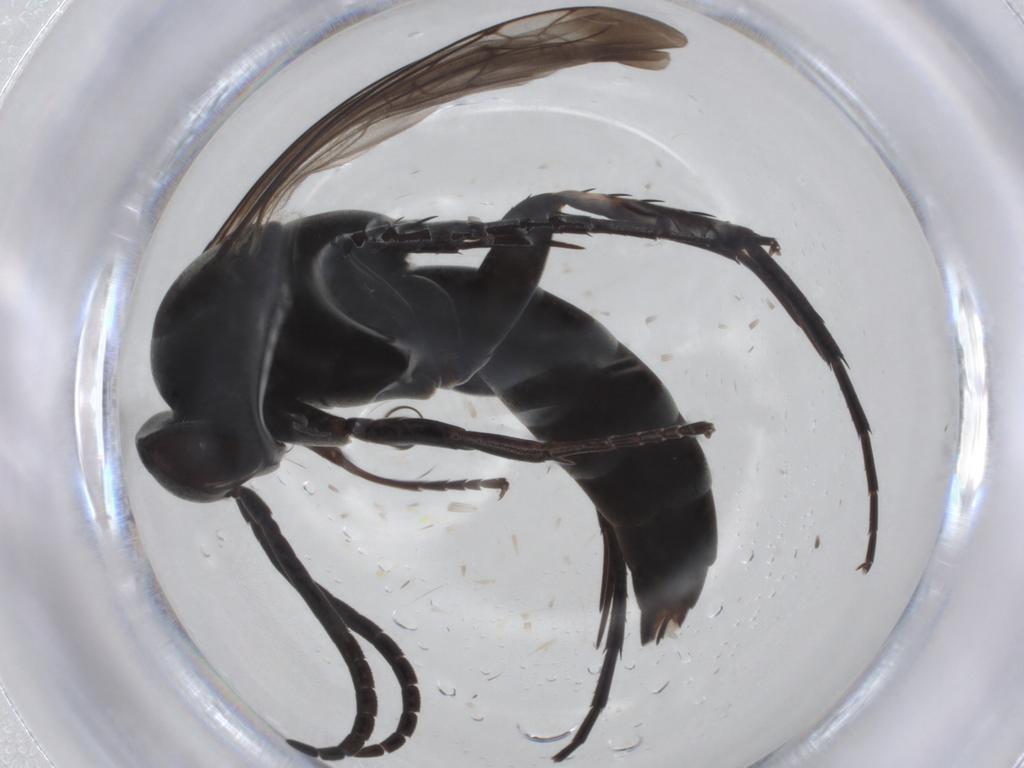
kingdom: Animalia
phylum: Arthropoda
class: Insecta
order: Hymenoptera
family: Pompilidae
